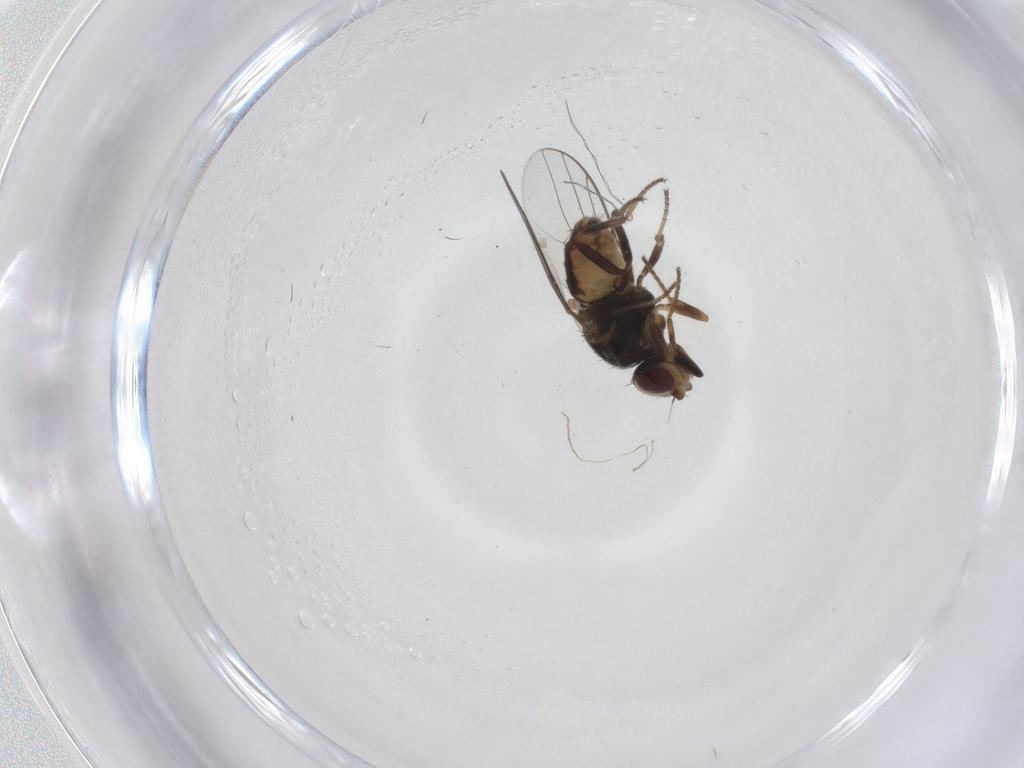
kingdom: Animalia
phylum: Arthropoda
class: Insecta
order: Diptera
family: Chloropidae
